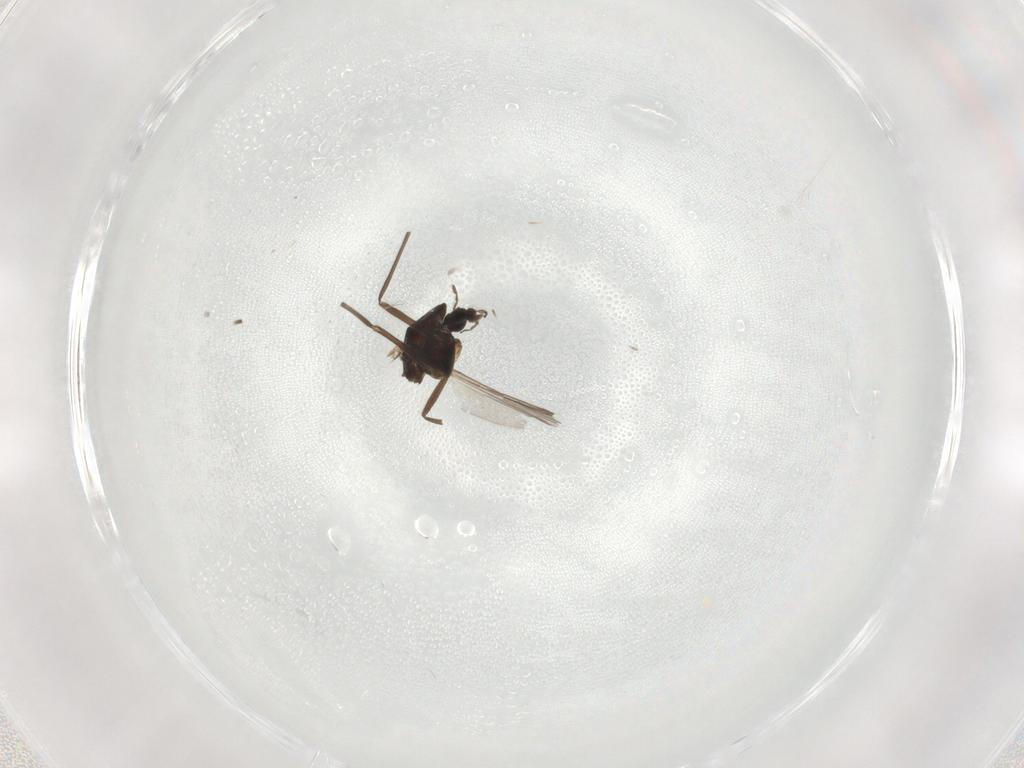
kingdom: Animalia
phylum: Arthropoda
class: Insecta
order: Diptera
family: Chironomidae
